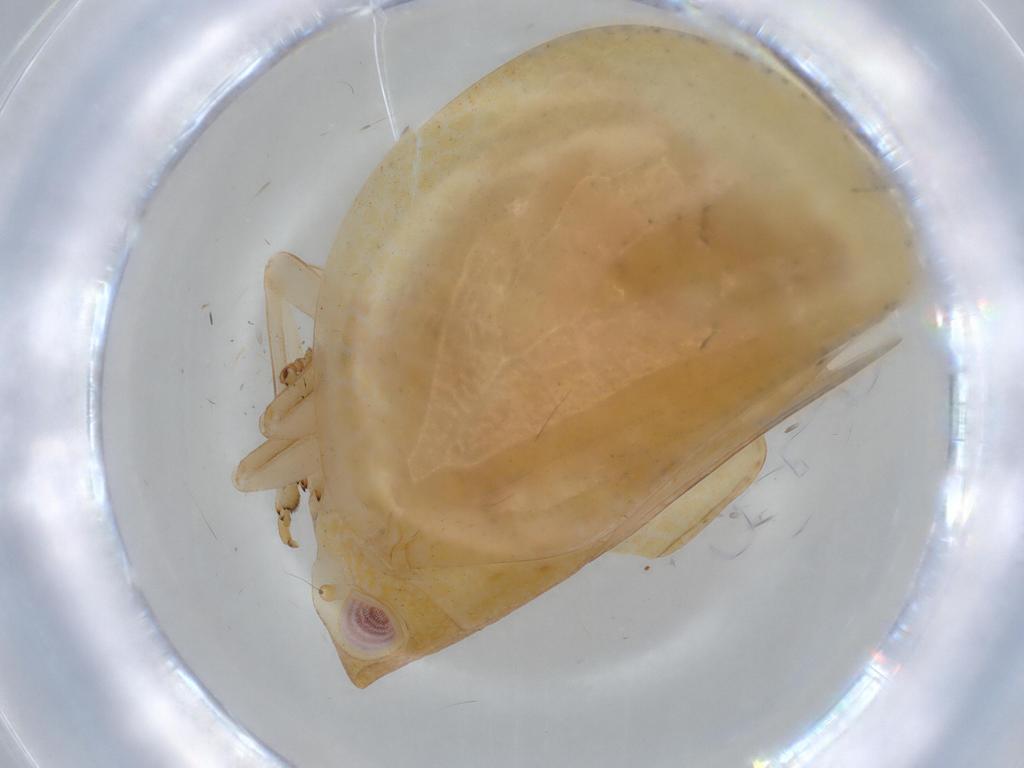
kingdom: Animalia
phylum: Arthropoda
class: Insecta
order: Hemiptera
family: Acanaloniidae
